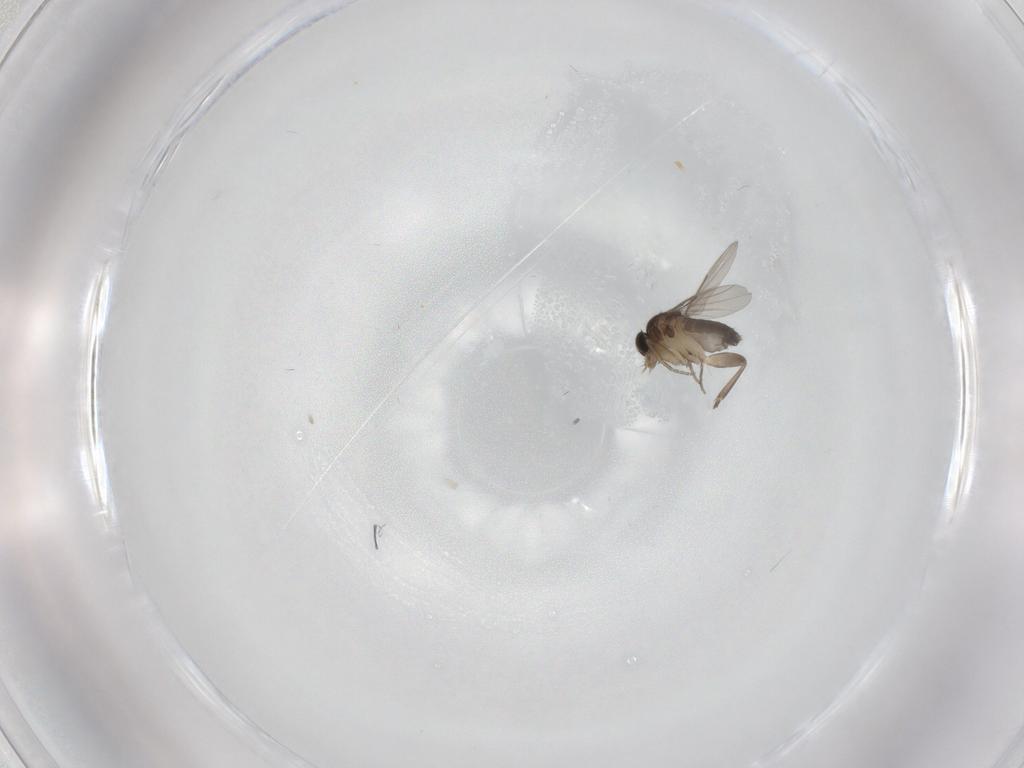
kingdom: Animalia
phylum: Arthropoda
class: Insecta
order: Diptera
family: Phoridae
